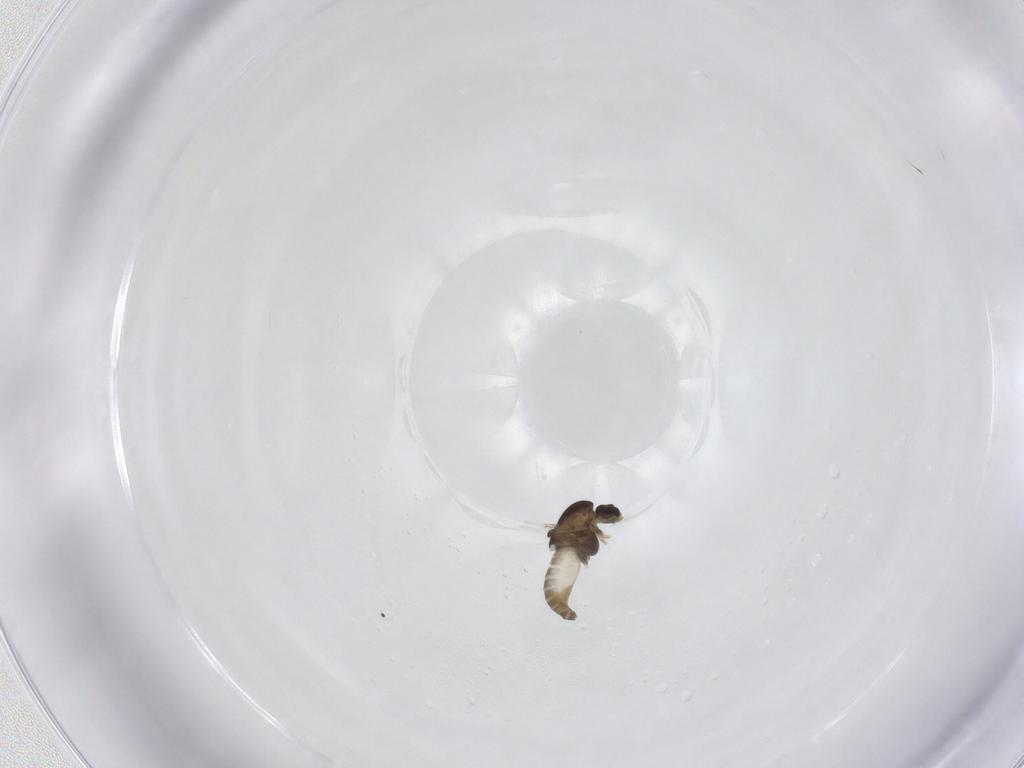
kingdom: Animalia
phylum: Arthropoda
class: Insecta
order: Diptera
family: Chironomidae
